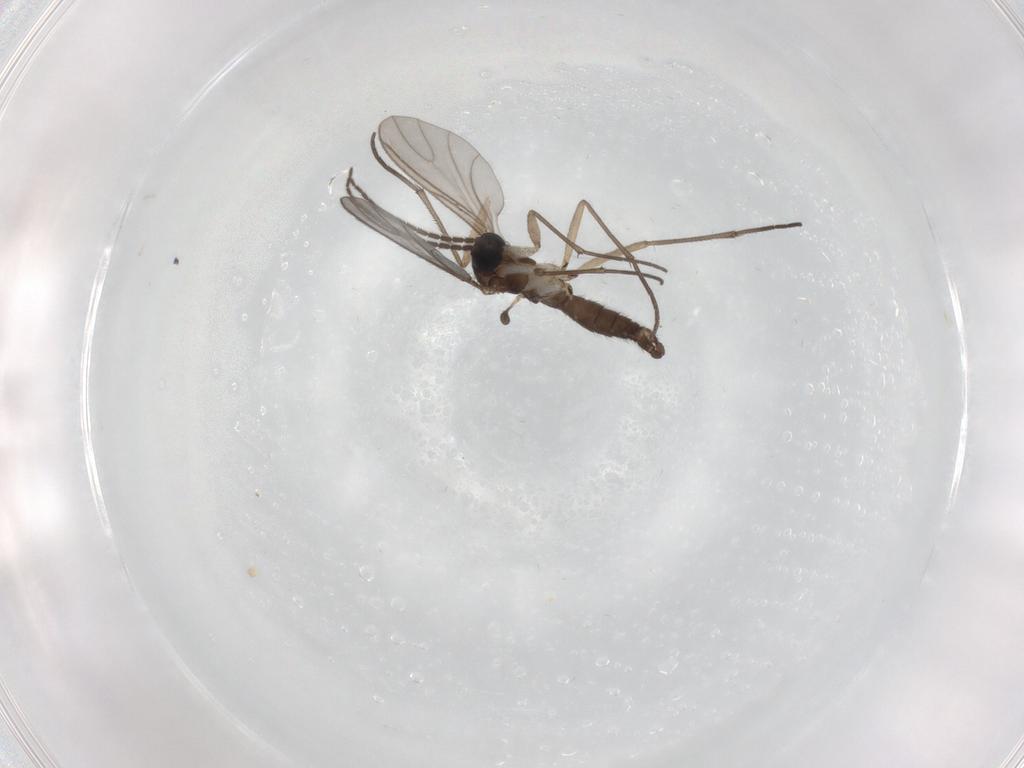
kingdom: Animalia
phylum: Arthropoda
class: Insecta
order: Diptera
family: Sciaridae
